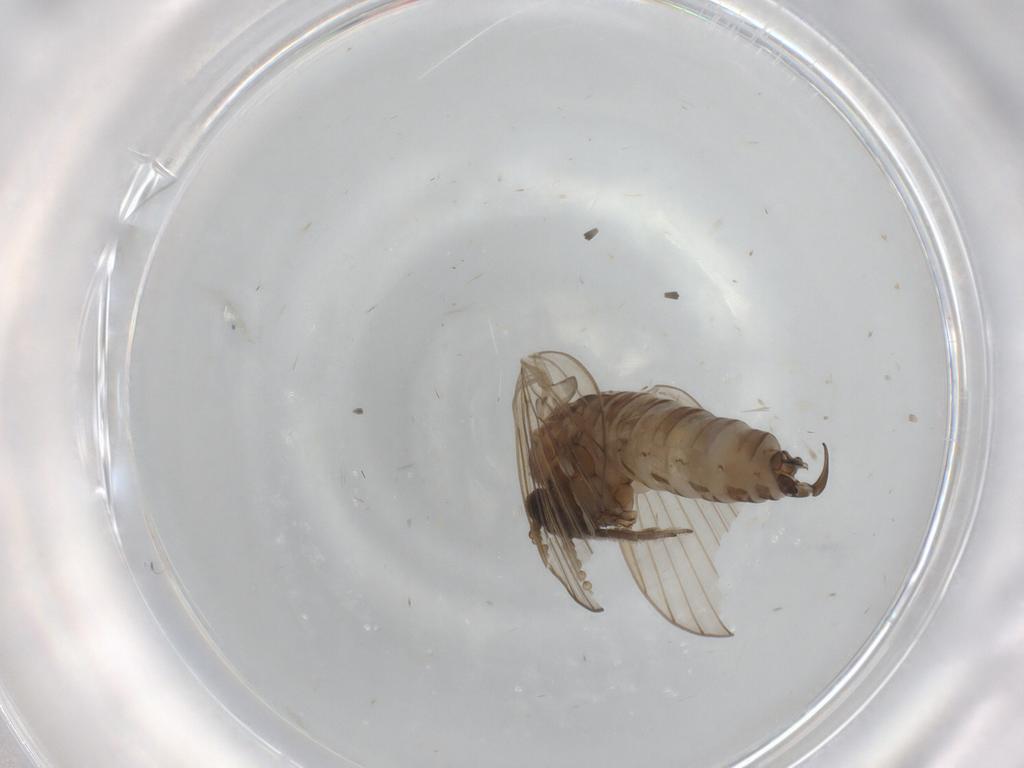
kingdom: Animalia
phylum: Arthropoda
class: Insecta
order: Diptera
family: Psychodidae
